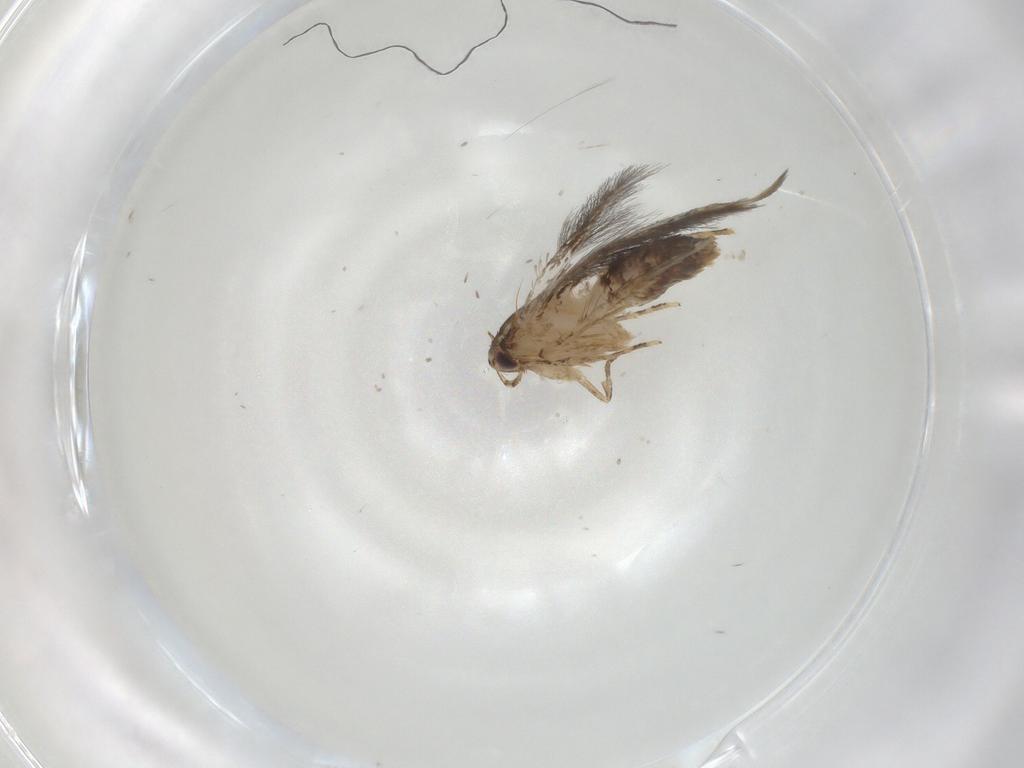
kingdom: Animalia
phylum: Arthropoda
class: Insecta
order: Lepidoptera
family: Cosmopterigidae
